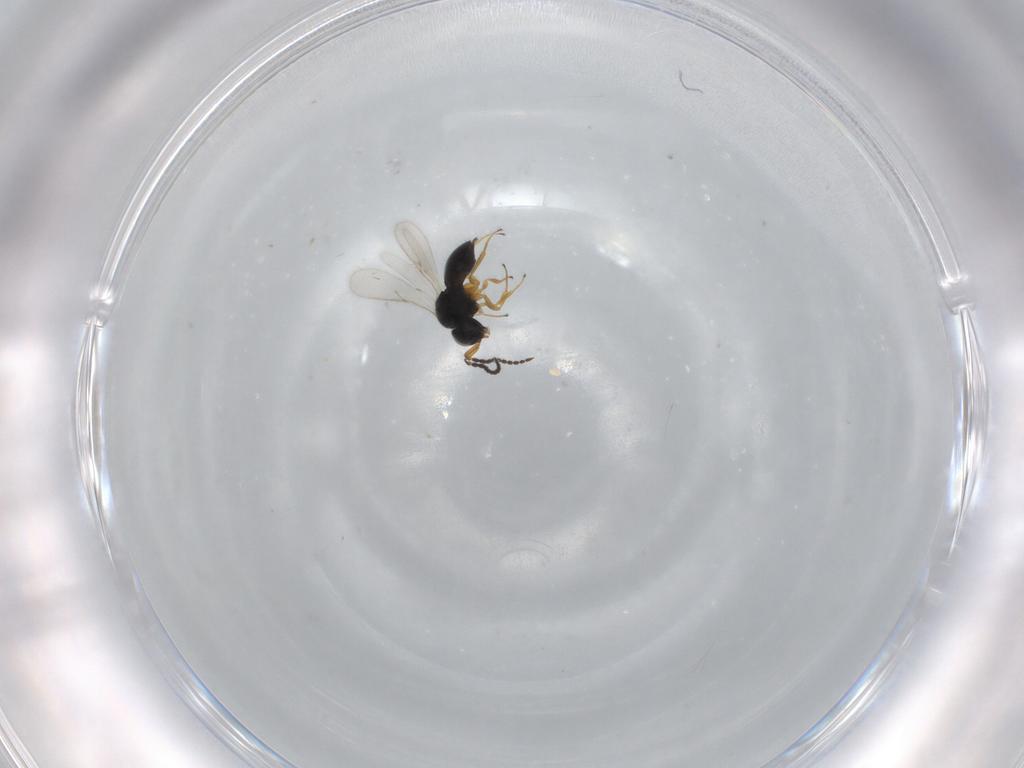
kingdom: Animalia
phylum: Arthropoda
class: Insecta
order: Hymenoptera
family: Scelionidae
